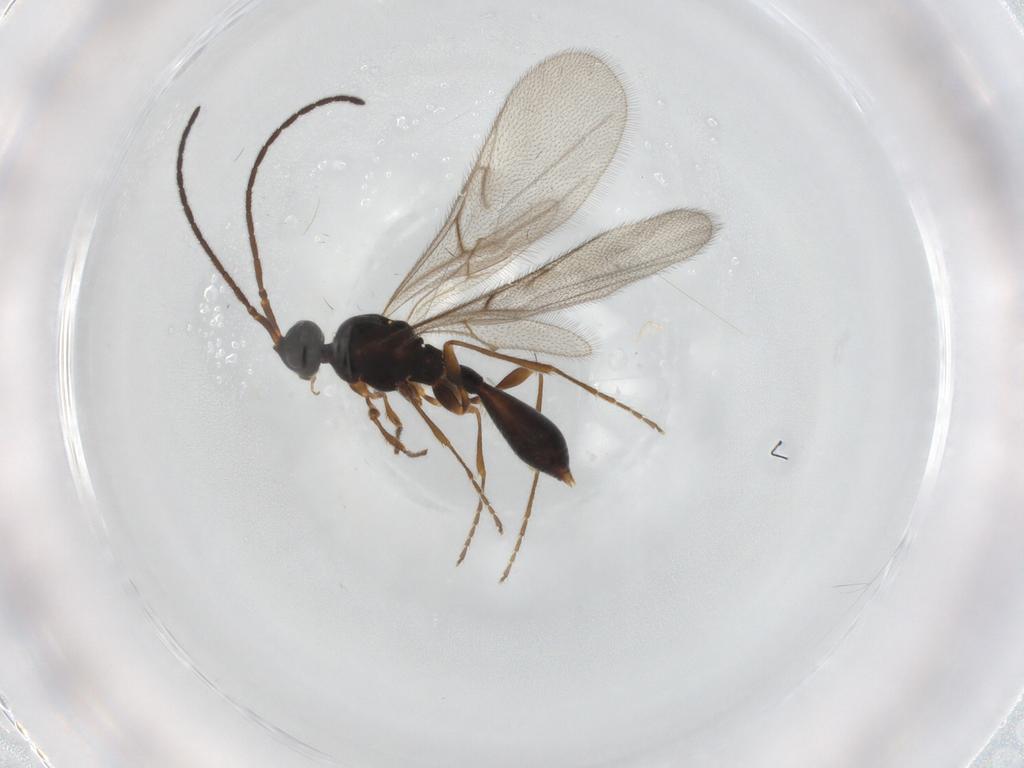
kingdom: Animalia
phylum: Arthropoda
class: Insecta
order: Hymenoptera
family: Diapriidae
